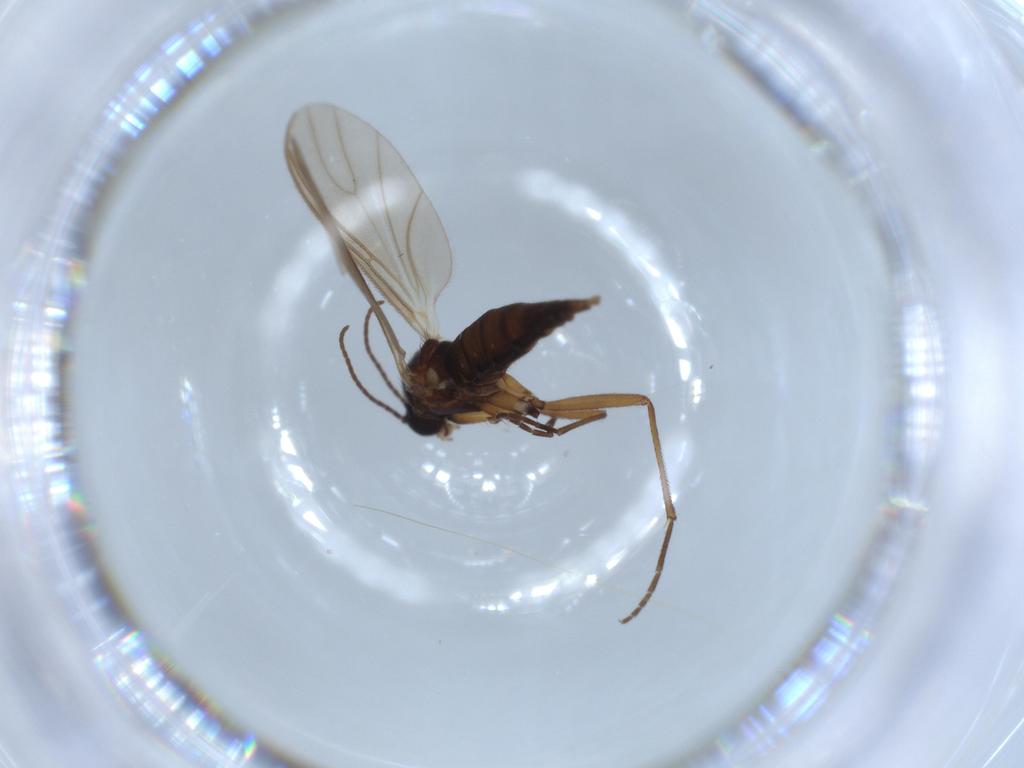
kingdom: Animalia
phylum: Arthropoda
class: Insecta
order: Diptera
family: Sciaridae
